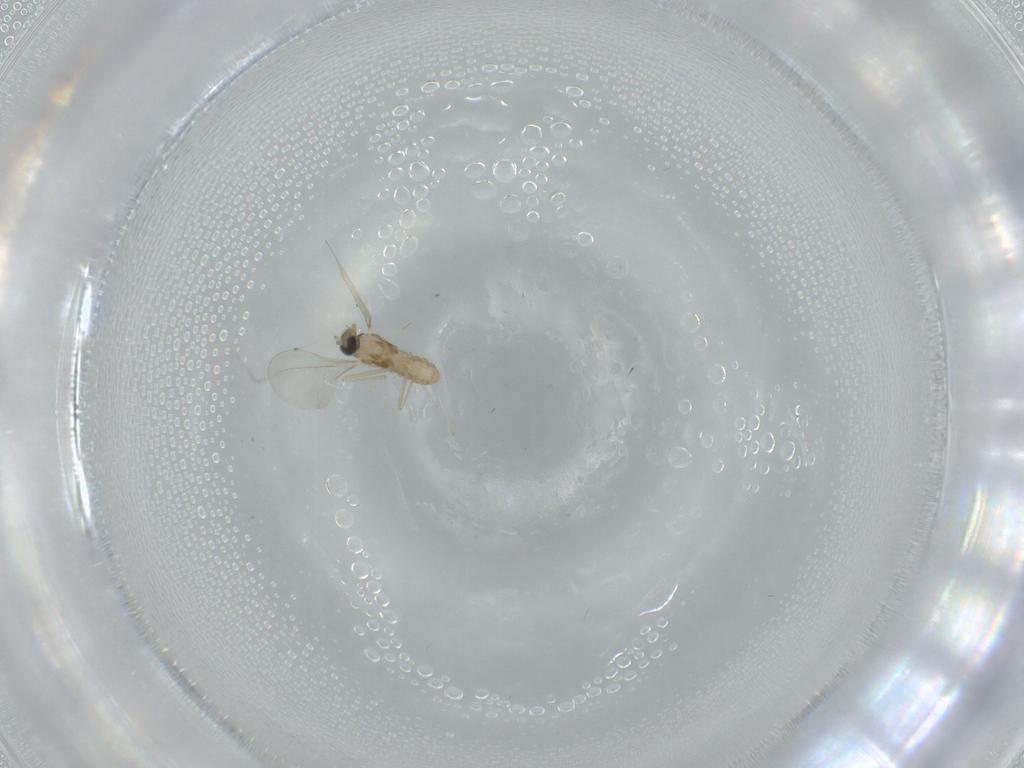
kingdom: Animalia
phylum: Arthropoda
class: Insecta
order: Diptera
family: Cecidomyiidae
